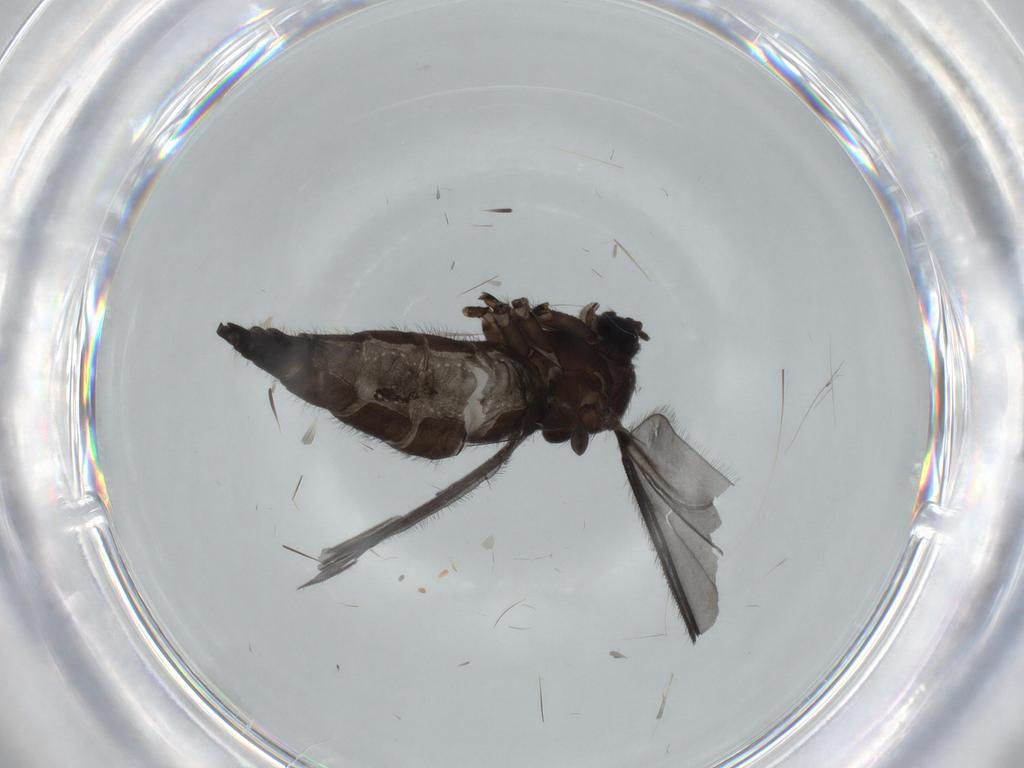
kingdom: Animalia
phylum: Arthropoda
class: Insecta
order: Diptera
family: Sciaridae
